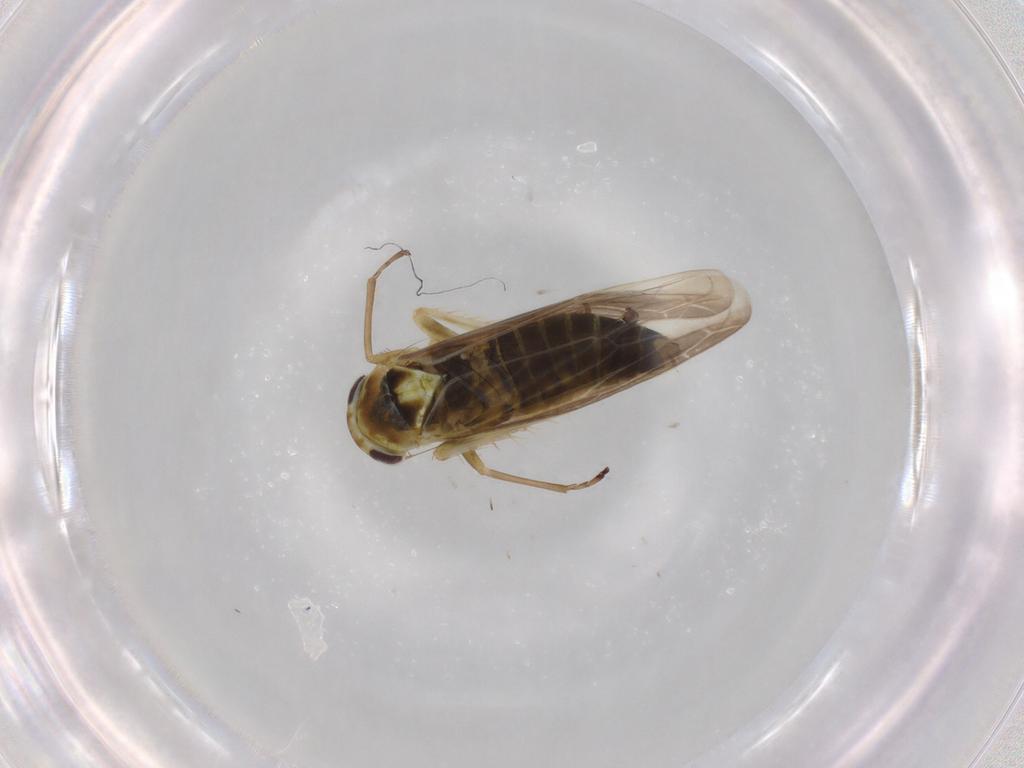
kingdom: Animalia
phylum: Arthropoda
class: Insecta
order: Hemiptera
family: Cicadellidae
